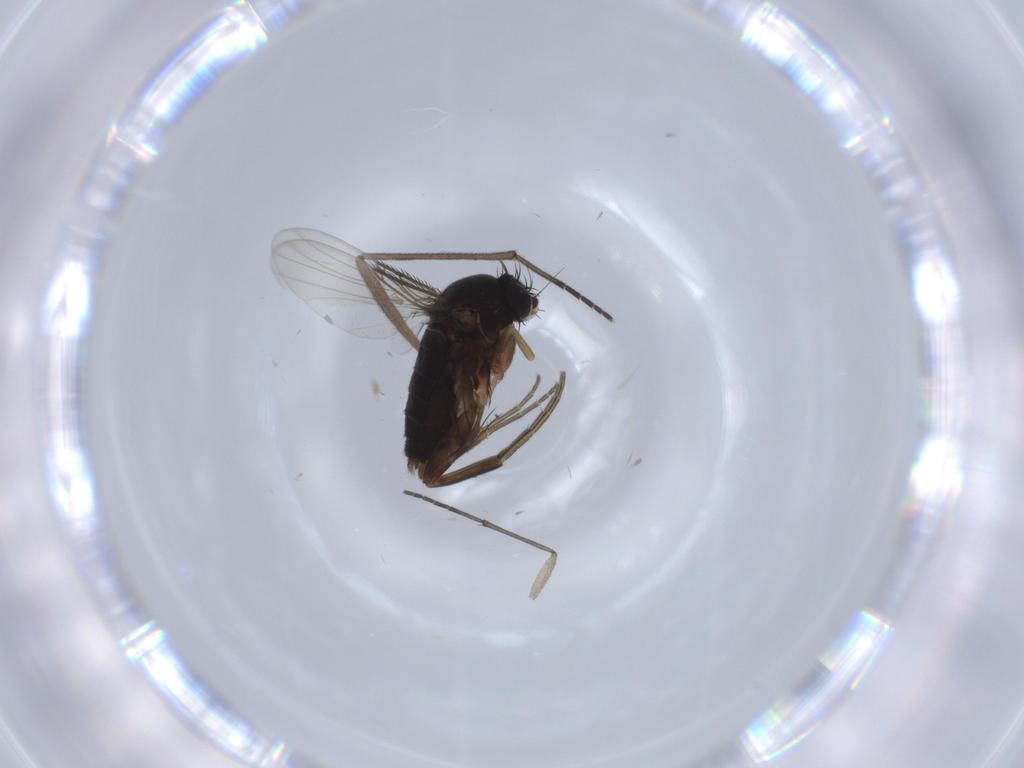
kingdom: Animalia
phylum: Arthropoda
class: Insecta
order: Diptera
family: Phoridae
